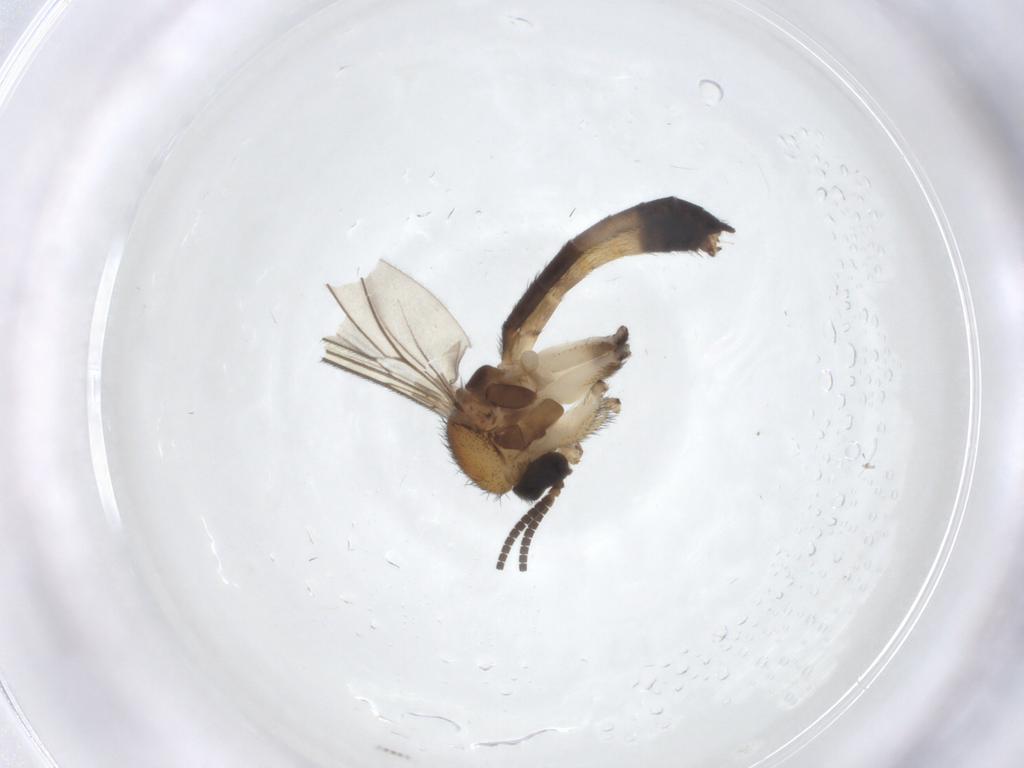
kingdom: Animalia
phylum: Arthropoda
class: Insecta
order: Diptera
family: Keroplatidae
